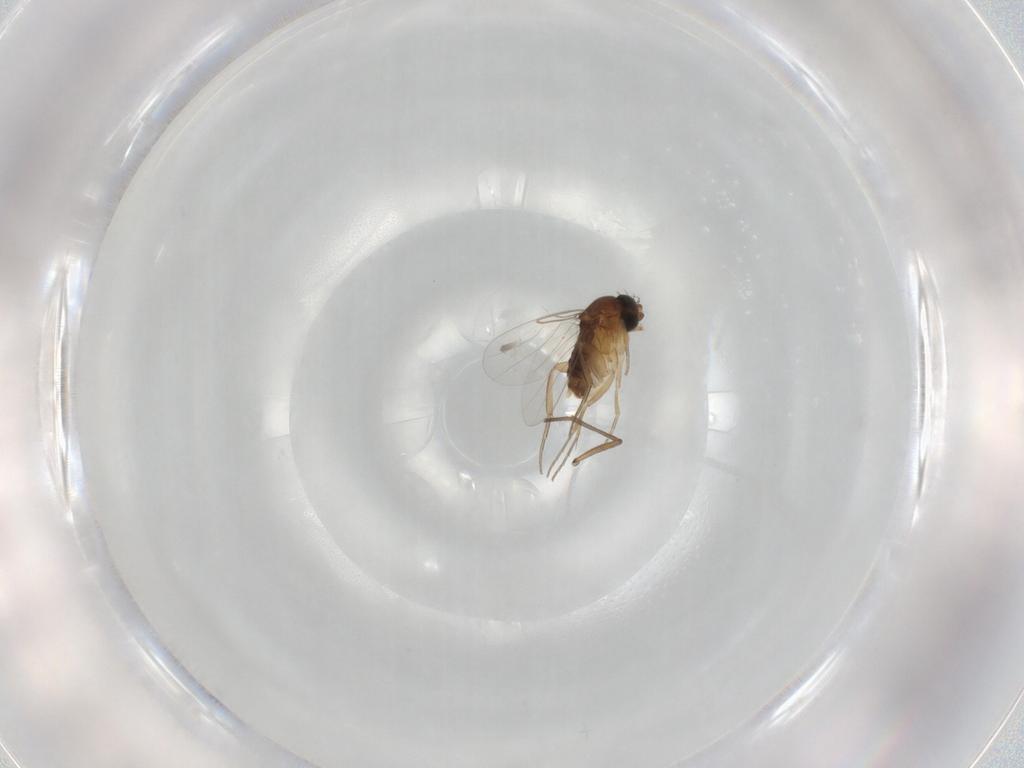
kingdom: Animalia
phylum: Arthropoda
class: Insecta
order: Diptera
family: Phoridae
